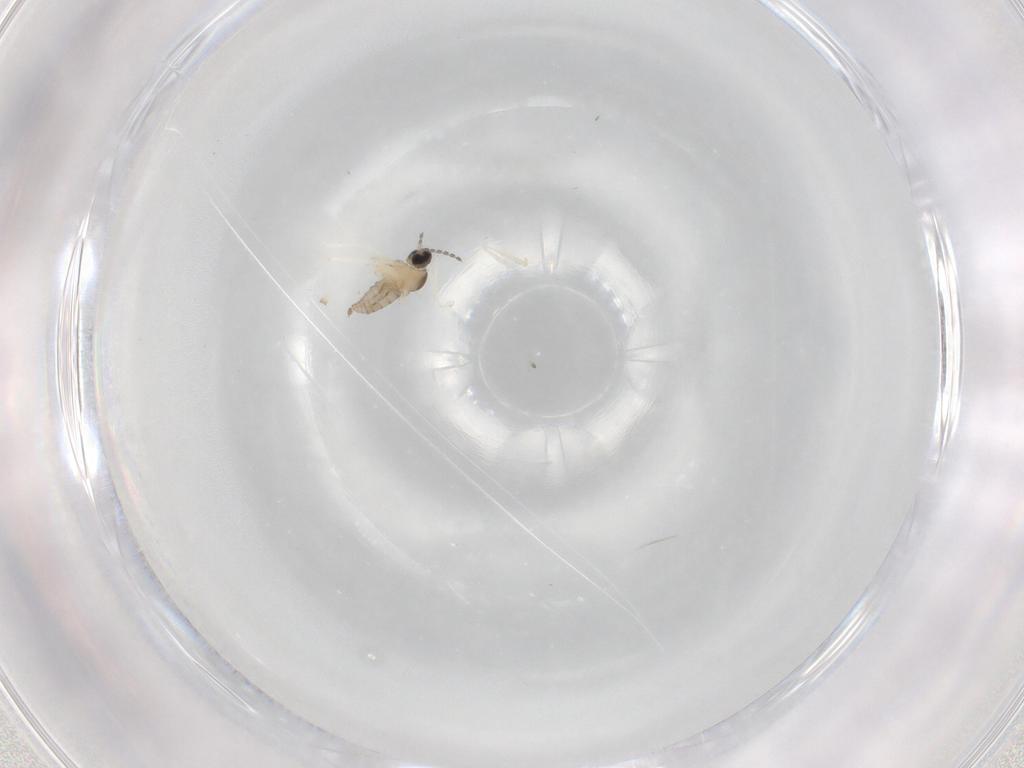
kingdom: Animalia
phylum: Arthropoda
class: Insecta
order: Diptera
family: Cecidomyiidae
